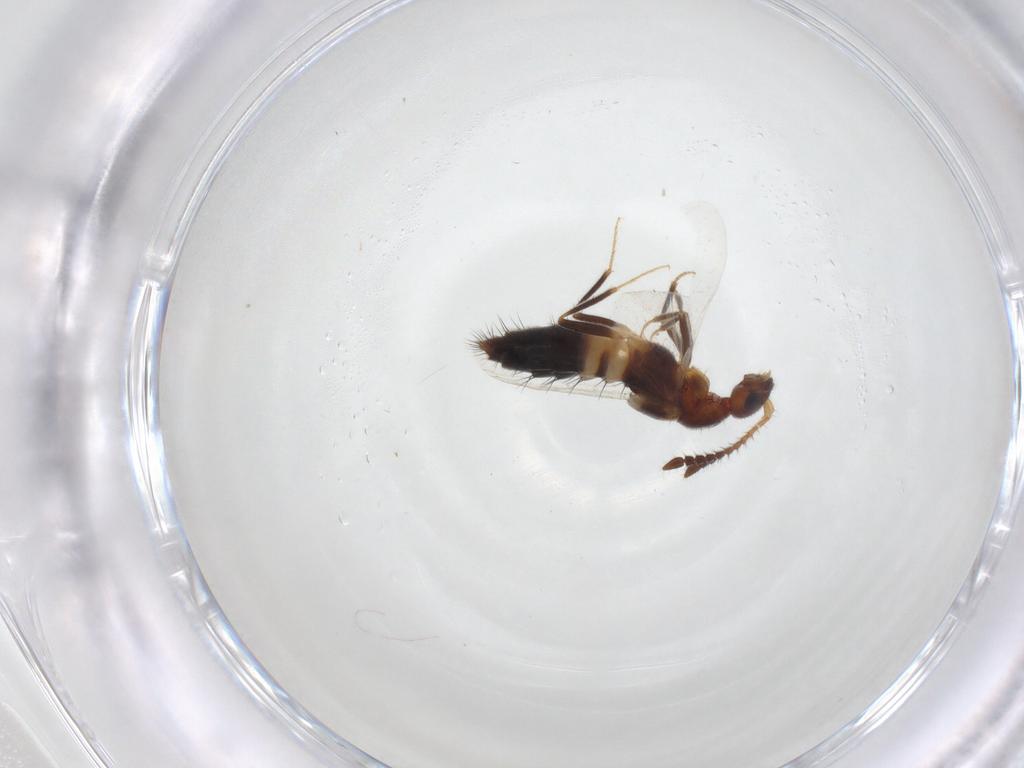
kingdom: Animalia
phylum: Arthropoda
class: Insecta
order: Coleoptera
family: Staphylinidae
